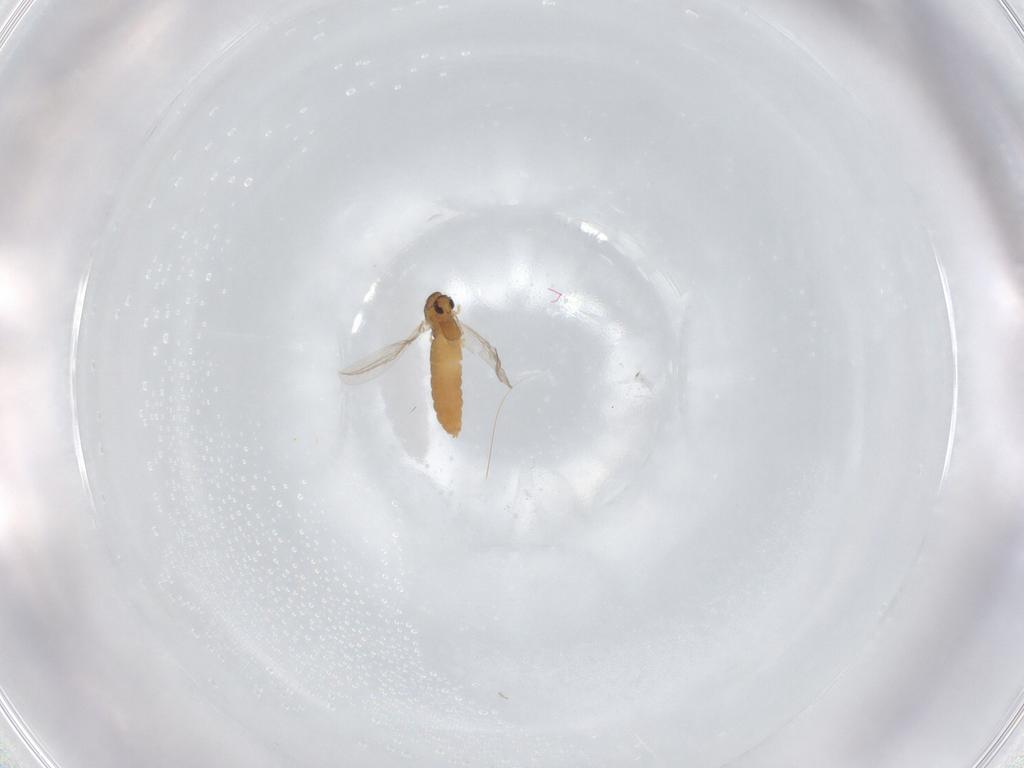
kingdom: Animalia
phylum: Arthropoda
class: Insecta
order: Diptera
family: Chironomidae
